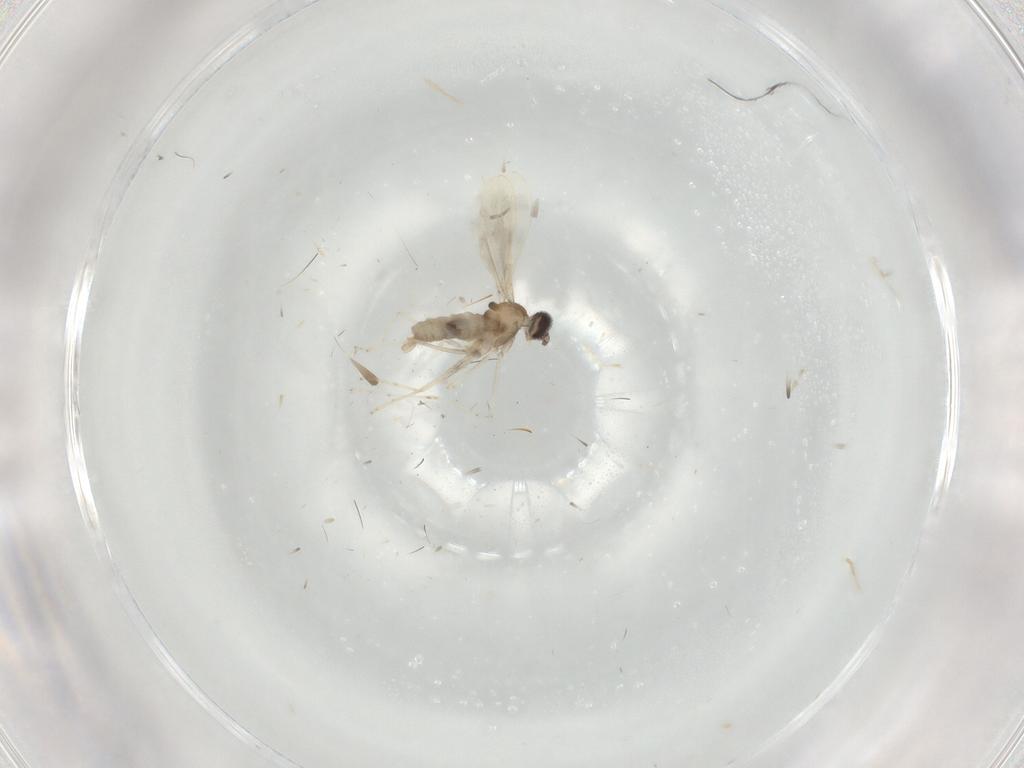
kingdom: Animalia
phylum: Arthropoda
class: Insecta
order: Diptera
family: Cecidomyiidae
